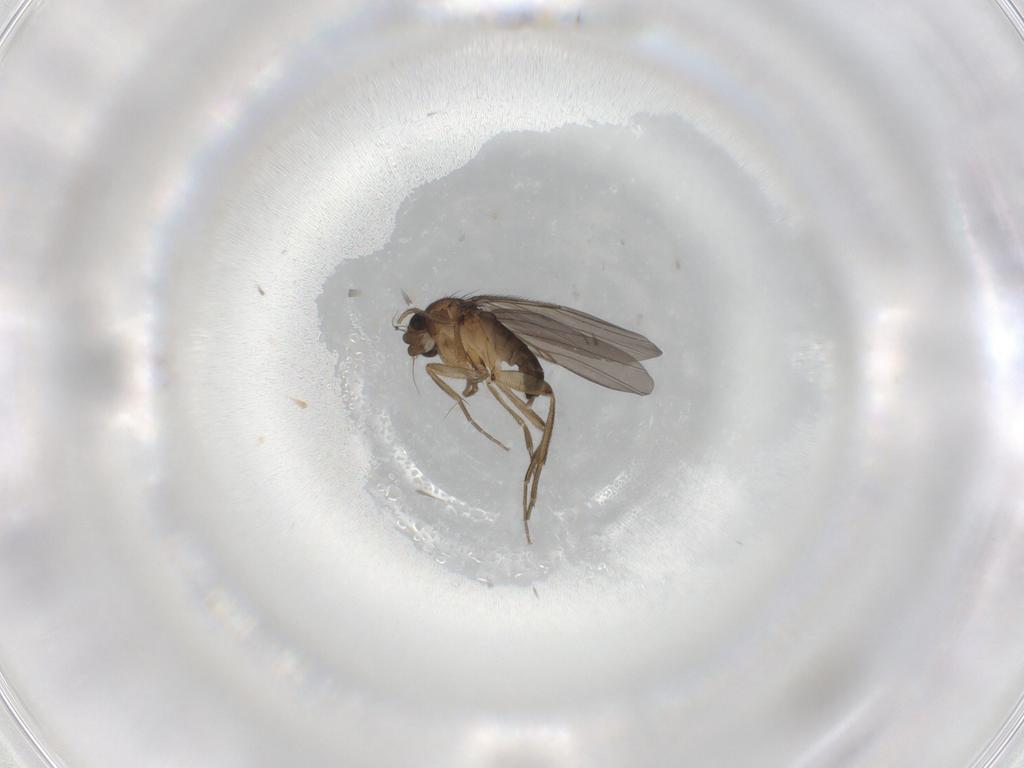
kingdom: Animalia
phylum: Arthropoda
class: Insecta
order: Diptera
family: Phoridae
